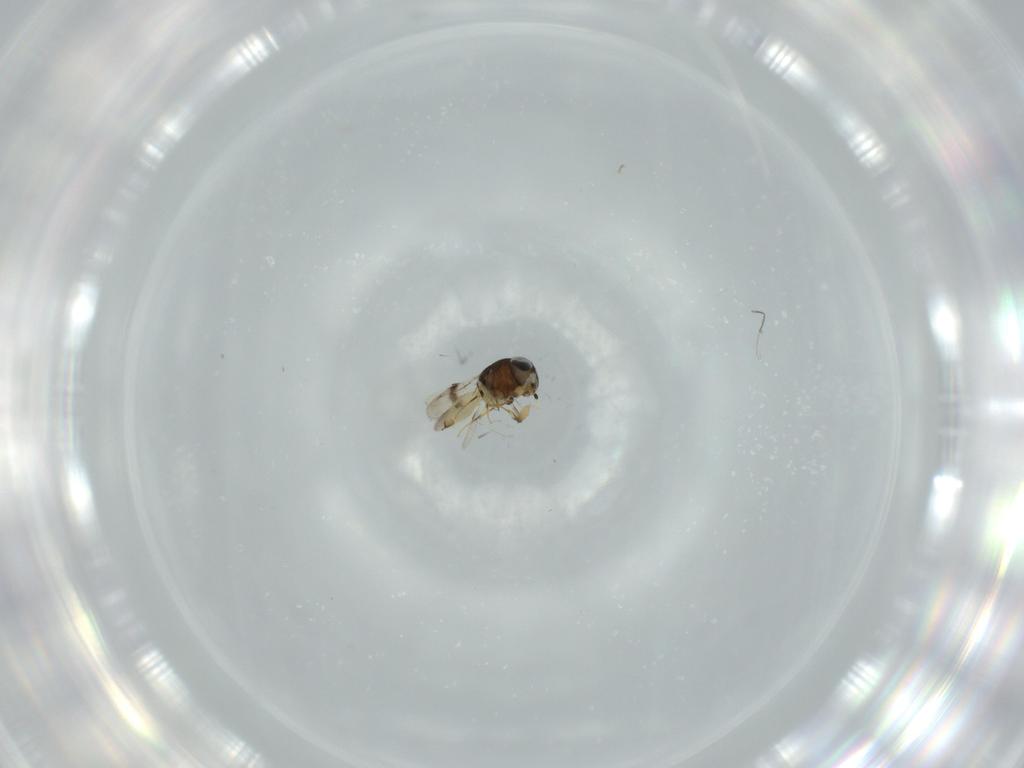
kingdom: Animalia
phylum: Arthropoda
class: Insecta
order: Hymenoptera
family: Scelionidae
